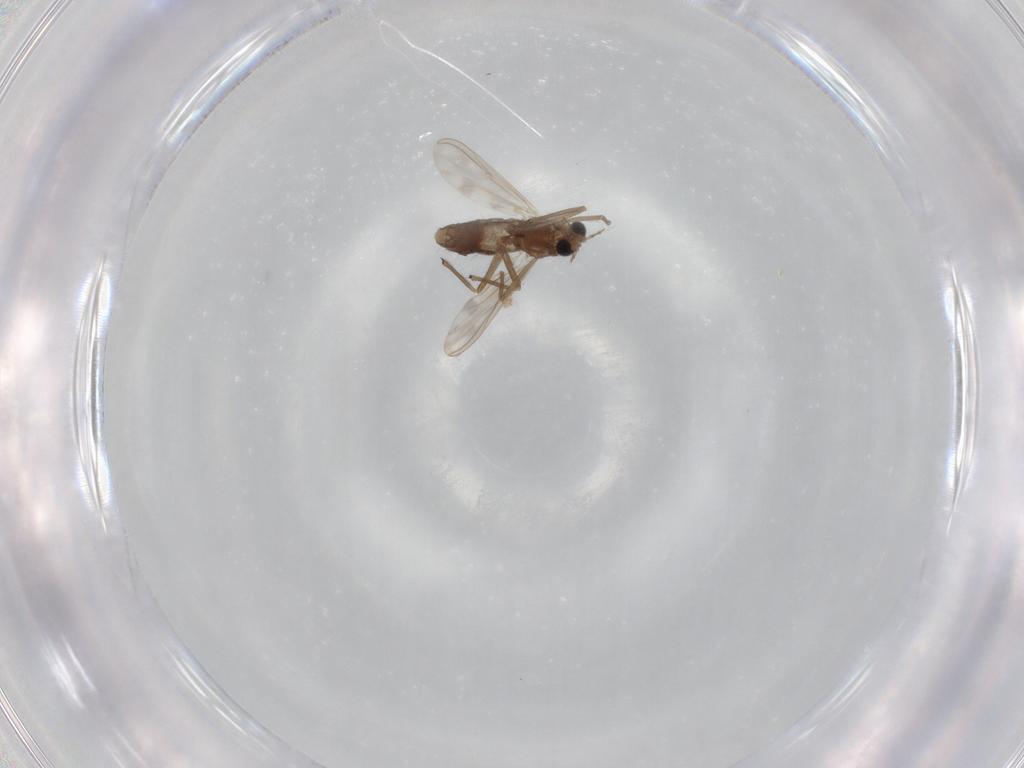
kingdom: Animalia
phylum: Arthropoda
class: Insecta
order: Diptera
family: Chironomidae
